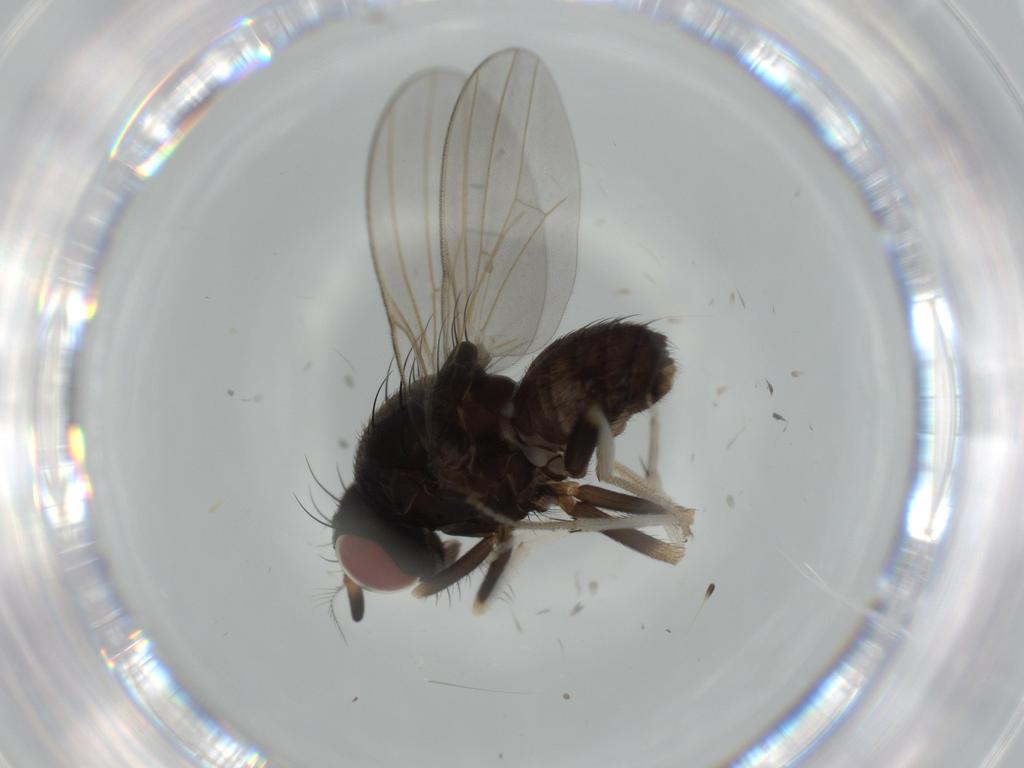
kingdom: Animalia
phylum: Arthropoda
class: Insecta
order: Diptera
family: Lauxaniidae
